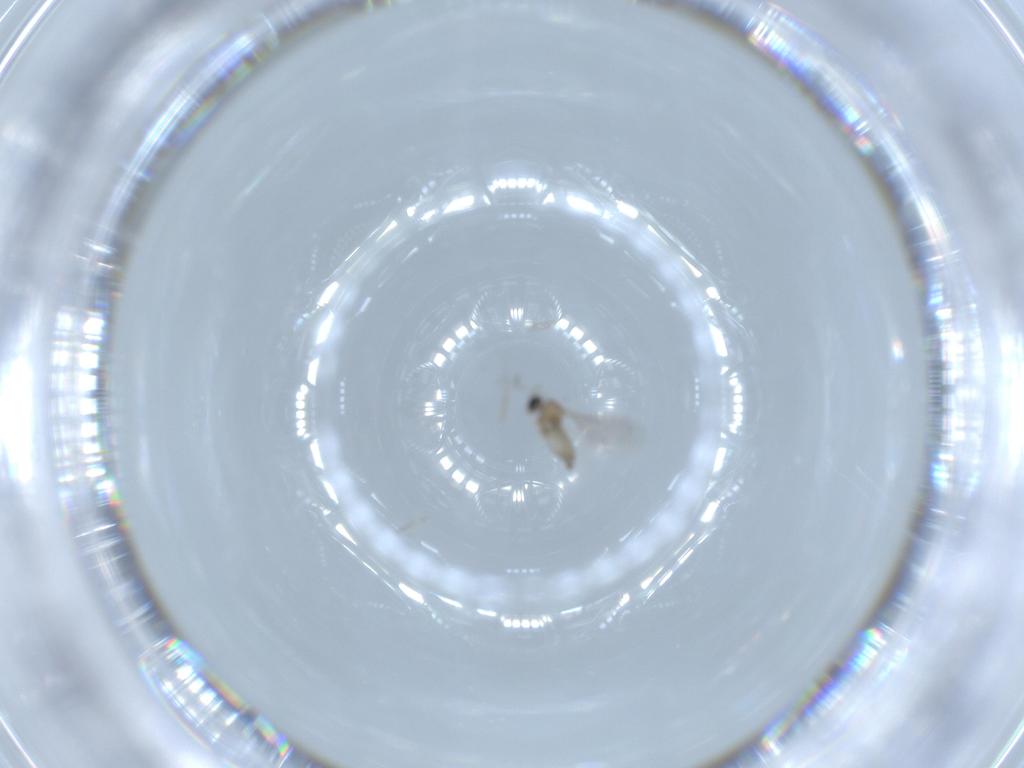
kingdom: Animalia
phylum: Arthropoda
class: Insecta
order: Diptera
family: Cecidomyiidae
